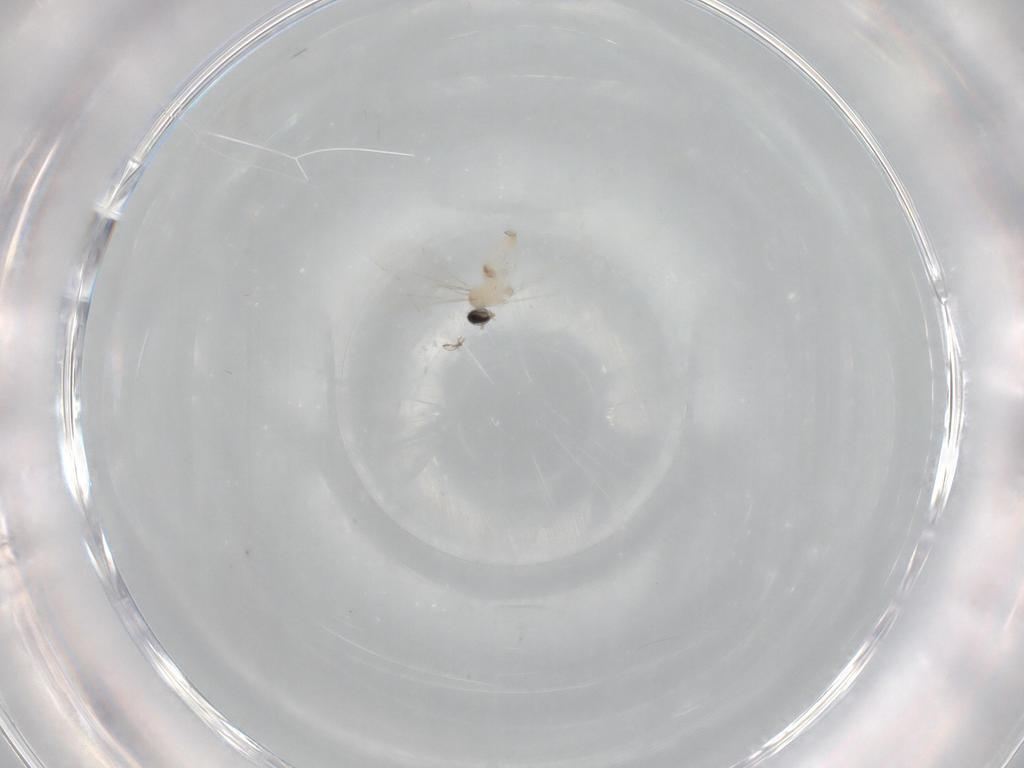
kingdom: Animalia
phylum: Arthropoda
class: Insecta
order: Diptera
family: Cecidomyiidae
